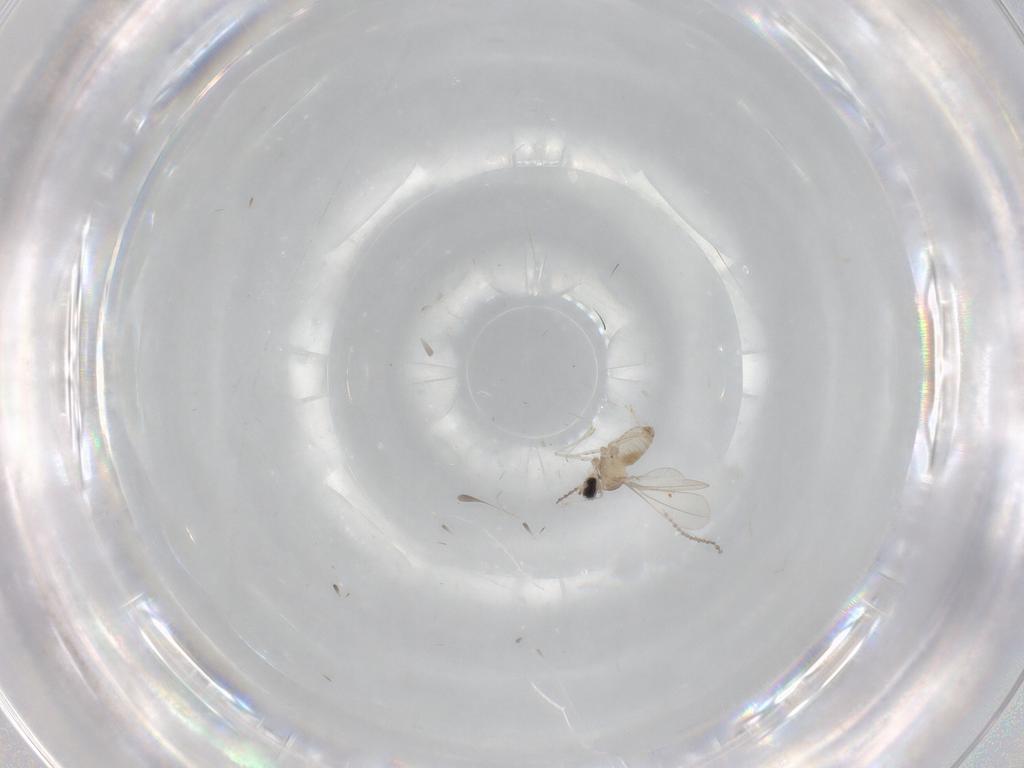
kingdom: Animalia
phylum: Arthropoda
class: Insecta
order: Diptera
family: Cecidomyiidae
